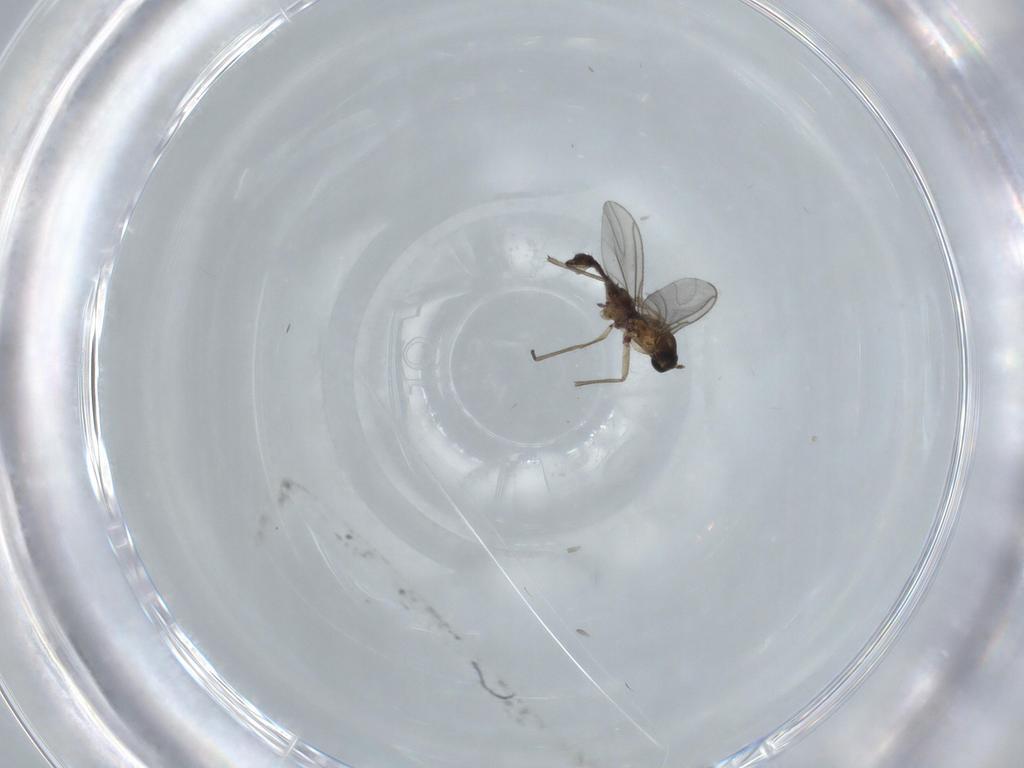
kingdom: Animalia
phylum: Arthropoda
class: Insecta
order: Diptera
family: Sciaridae
